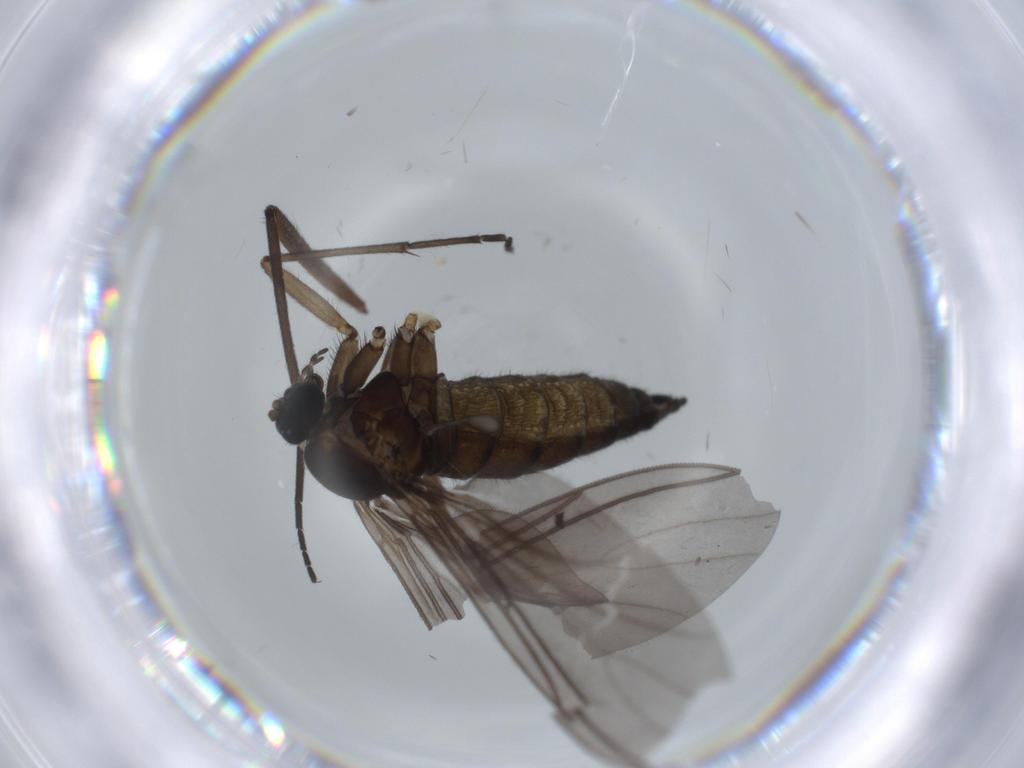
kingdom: Animalia
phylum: Arthropoda
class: Insecta
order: Diptera
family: Sciaridae
